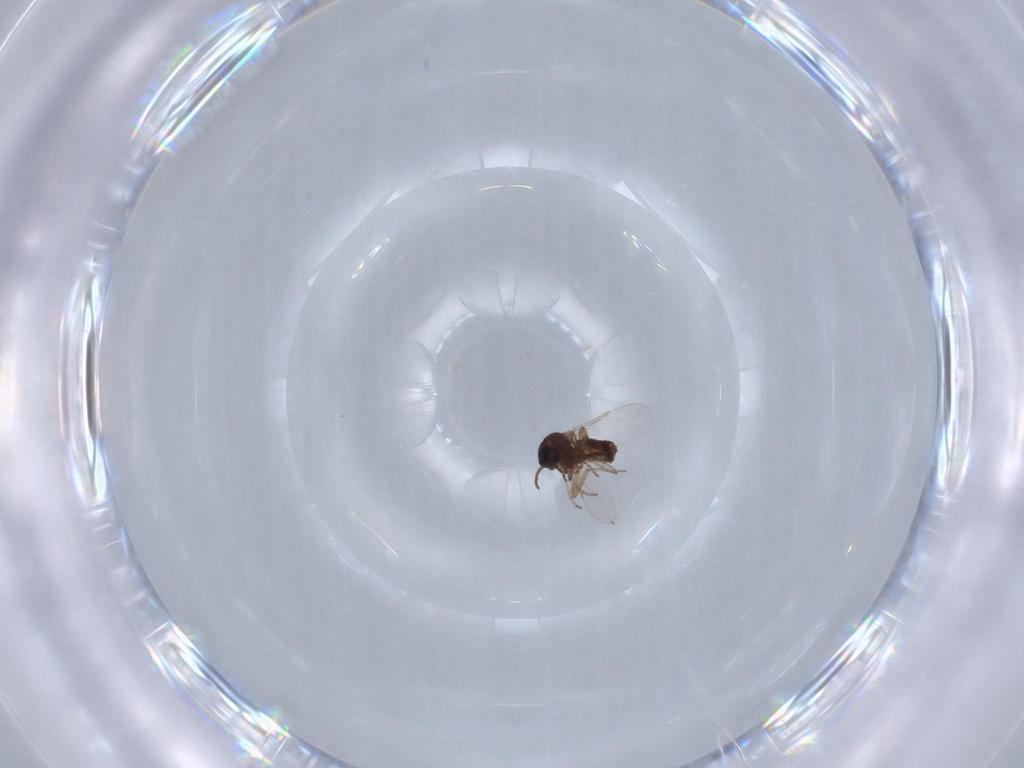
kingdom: Animalia
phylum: Arthropoda
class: Insecta
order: Diptera
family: Ceratopogonidae
